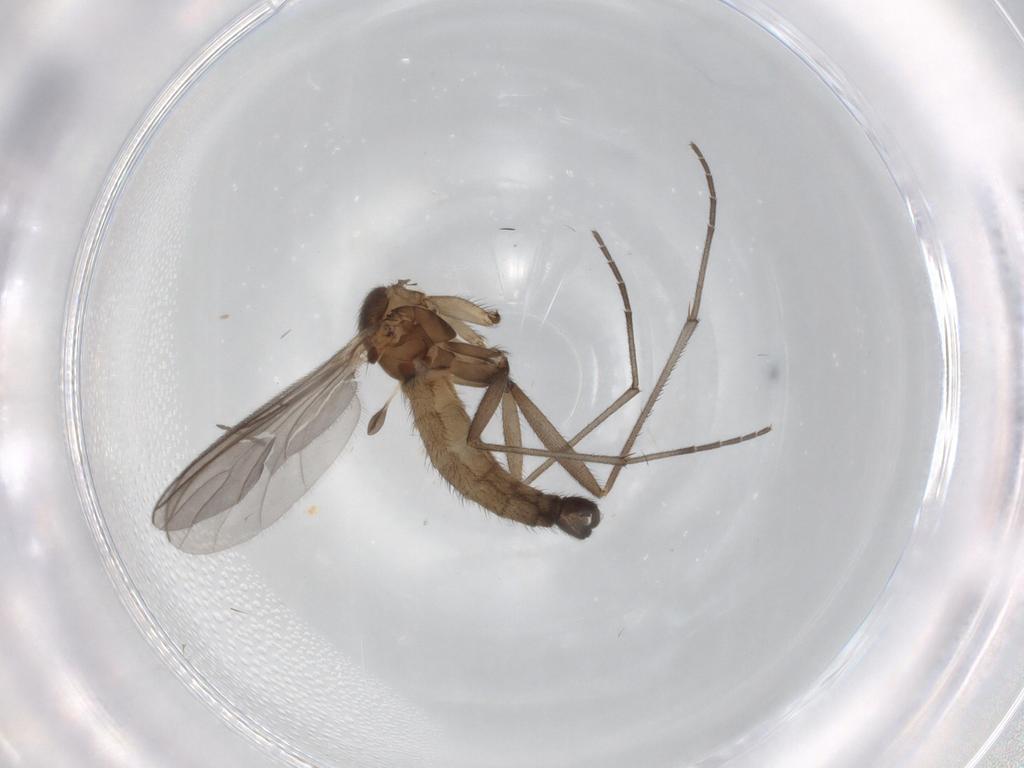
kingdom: Animalia
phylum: Arthropoda
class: Insecta
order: Diptera
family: Sciaridae
